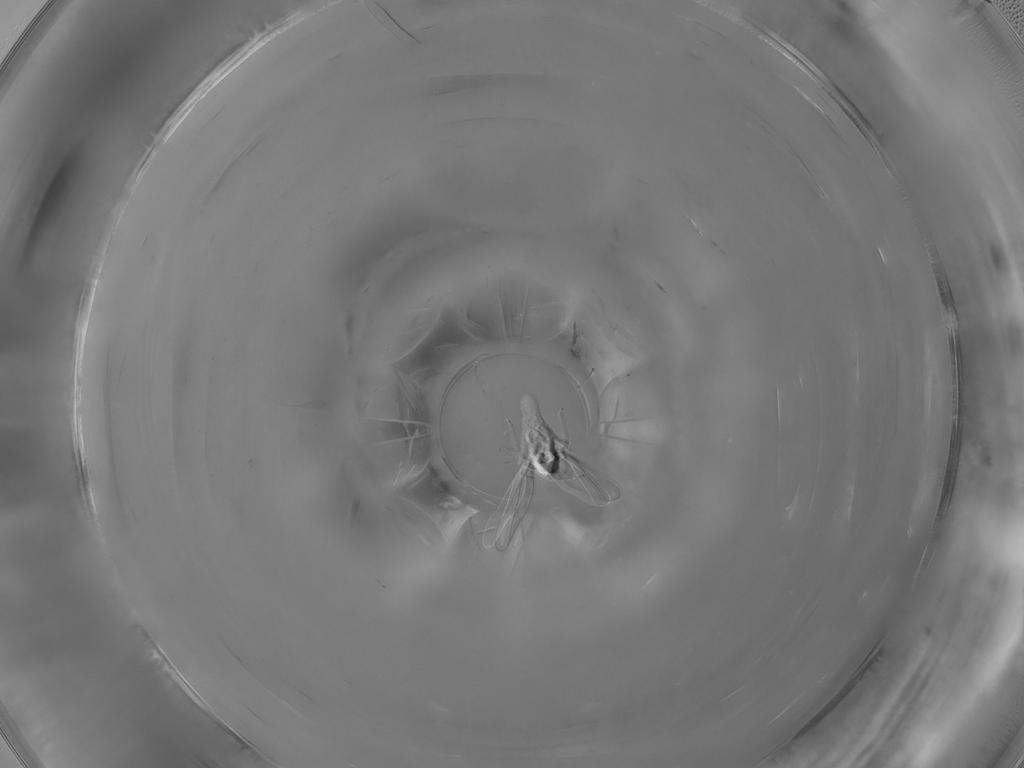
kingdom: Animalia
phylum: Arthropoda
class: Insecta
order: Diptera
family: Cecidomyiidae
